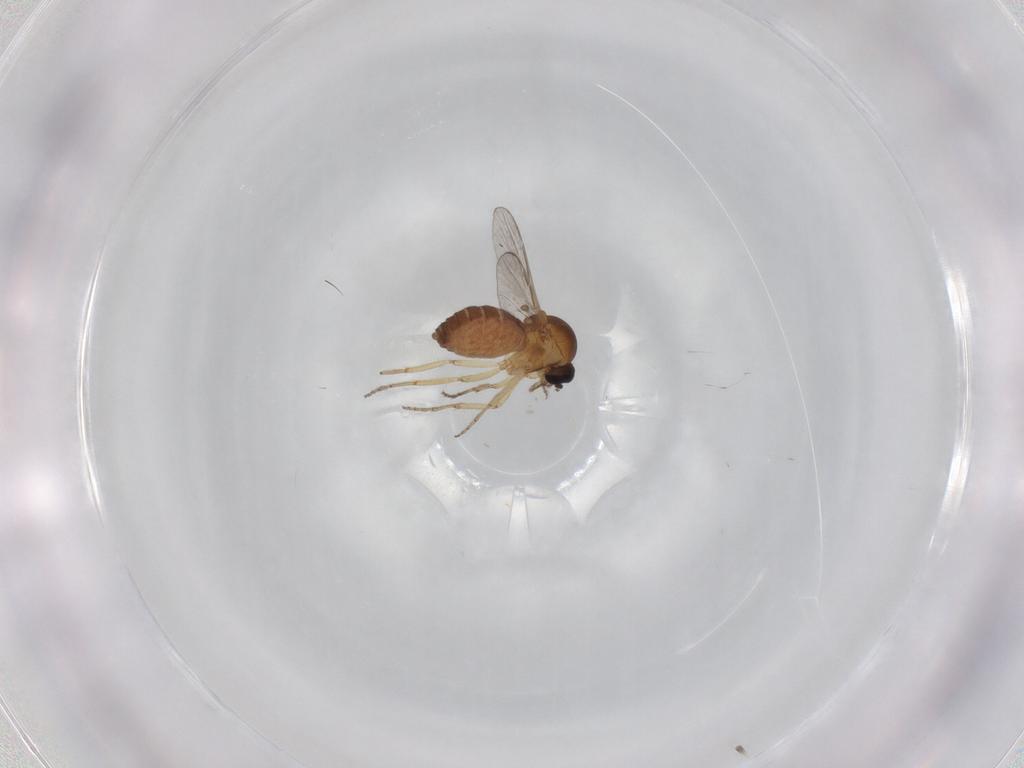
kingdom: Animalia
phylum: Arthropoda
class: Insecta
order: Diptera
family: Ceratopogonidae
